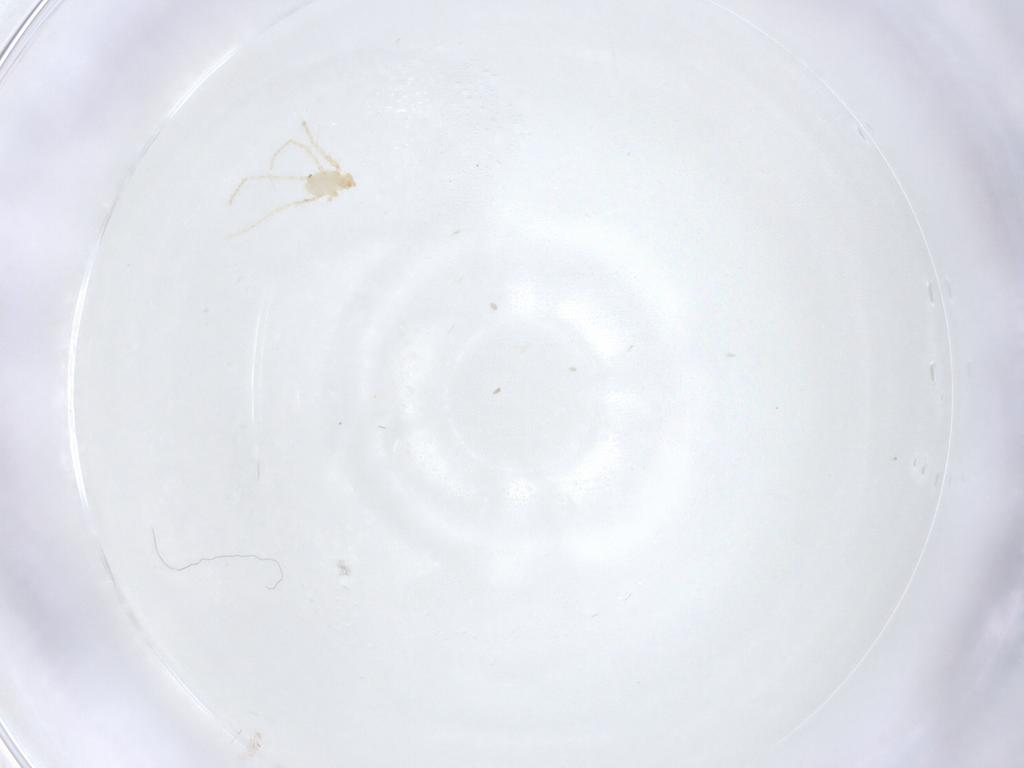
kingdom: Animalia
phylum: Arthropoda
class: Arachnida
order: Trombidiformes
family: Erythraeidae
